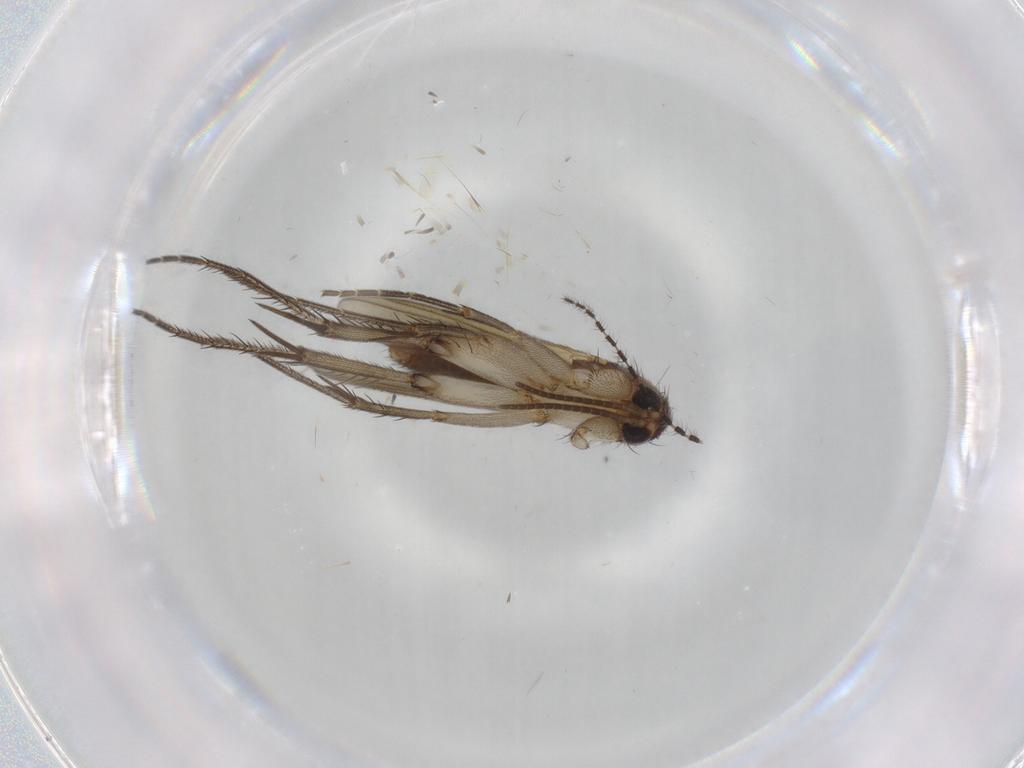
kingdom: Animalia
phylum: Arthropoda
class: Insecta
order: Diptera
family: Mycetophilidae
